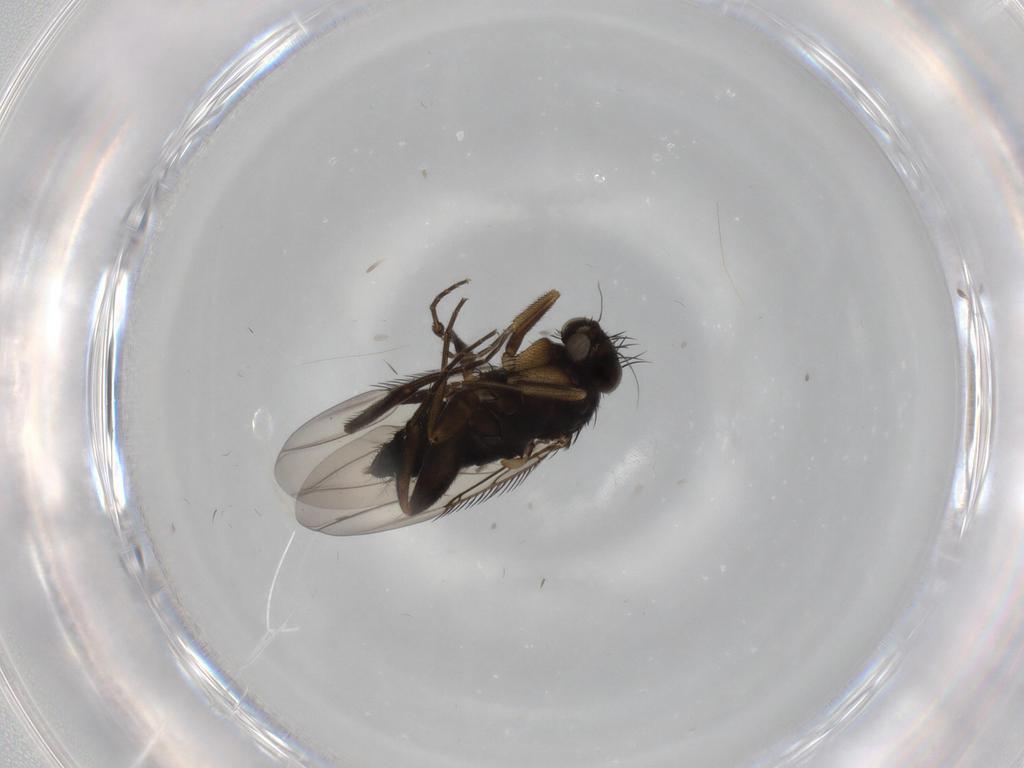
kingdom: Animalia
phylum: Arthropoda
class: Insecta
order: Diptera
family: Phoridae
